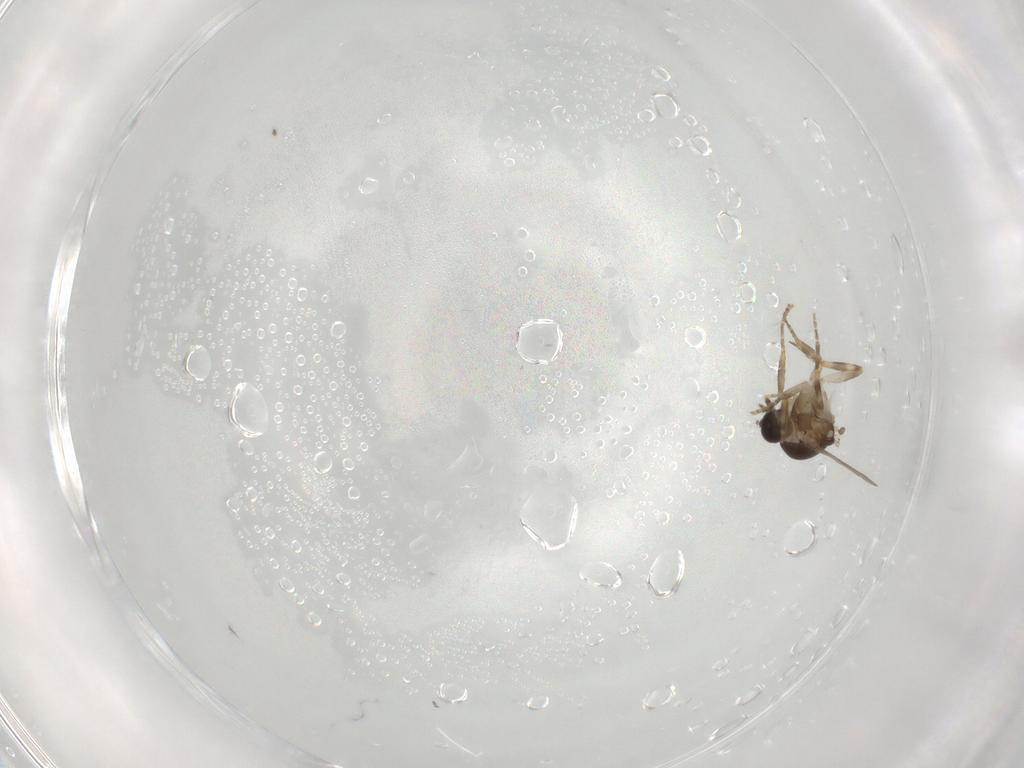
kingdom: Animalia
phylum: Arthropoda
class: Insecta
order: Diptera
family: Ceratopogonidae
